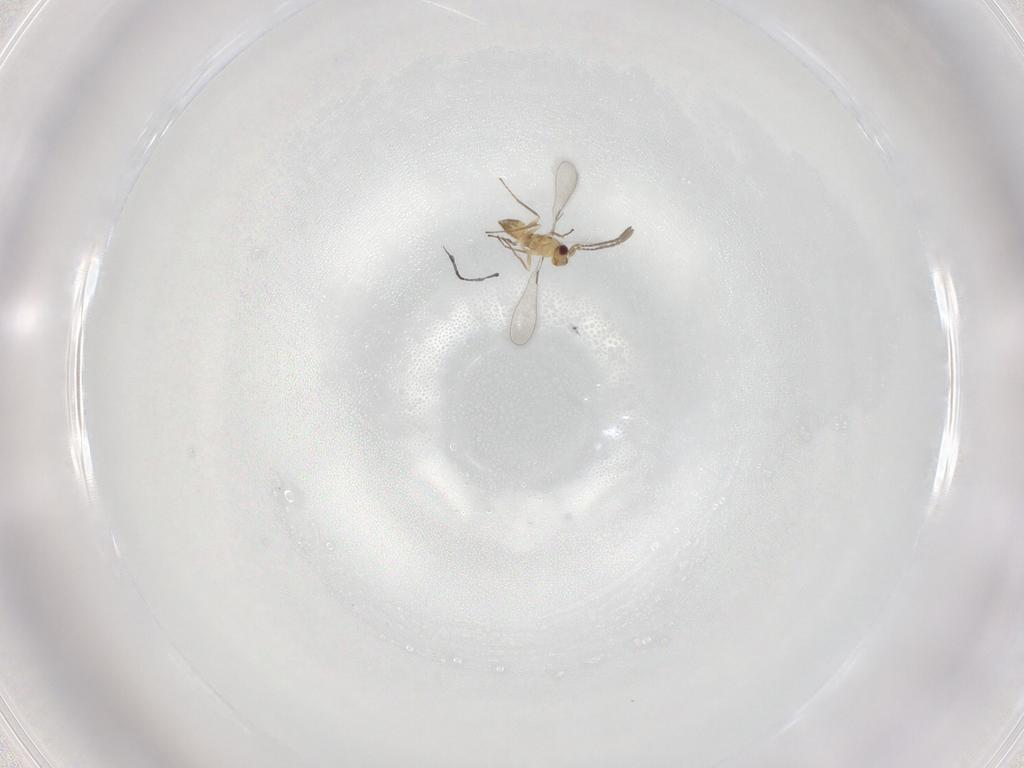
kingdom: Animalia
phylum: Arthropoda
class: Insecta
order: Hymenoptera
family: Mymaridae
